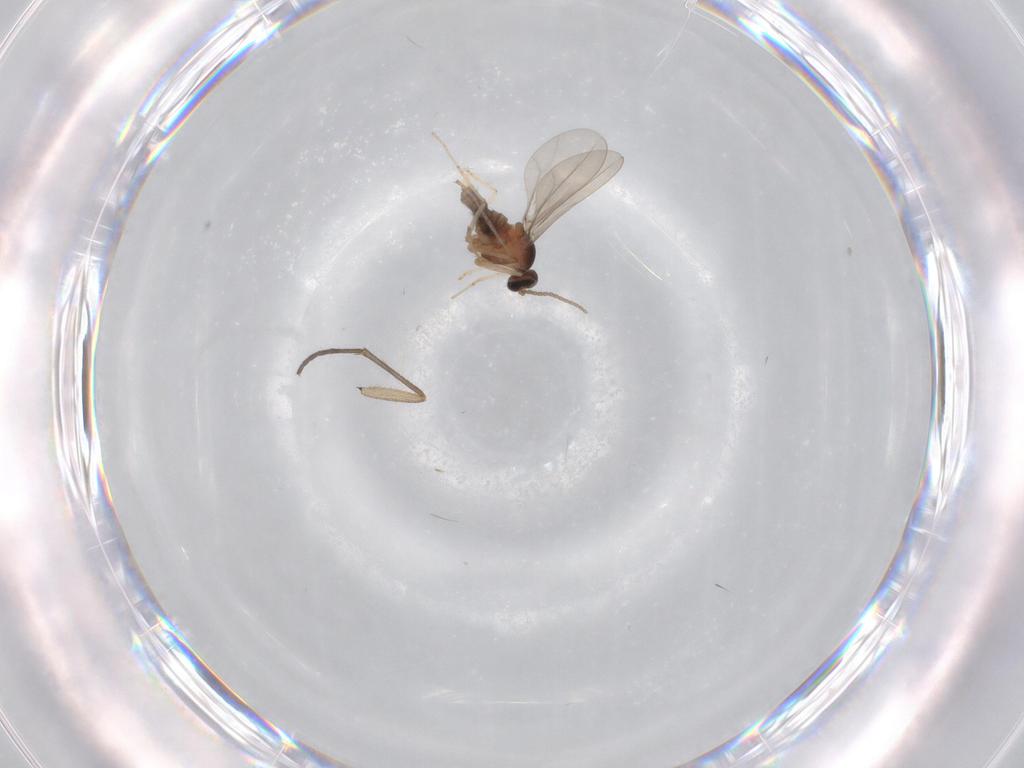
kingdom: Animalia
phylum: Arthropoda
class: Insecta
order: Diptera
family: Cecidomyiidae
